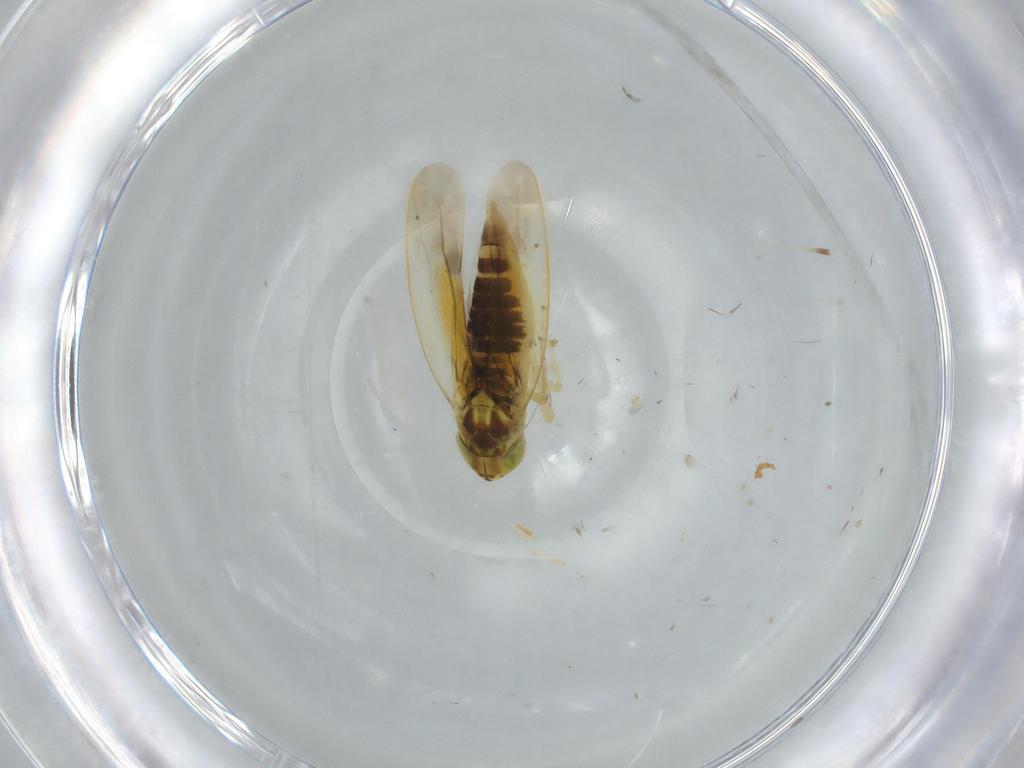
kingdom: Animalia
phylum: Arthropoda
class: Insecta
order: Hemiptera
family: Cicadellidae
